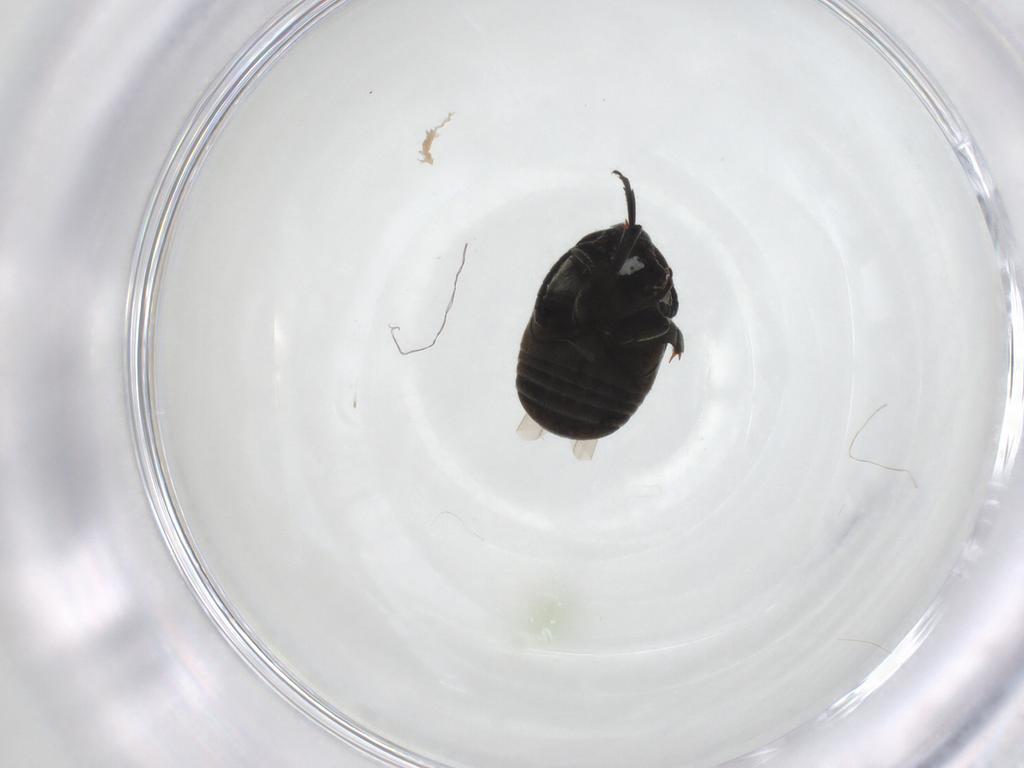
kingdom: Animalia
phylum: Arthropoda
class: Insecta
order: Coleoptera
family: Chrysomelidae
